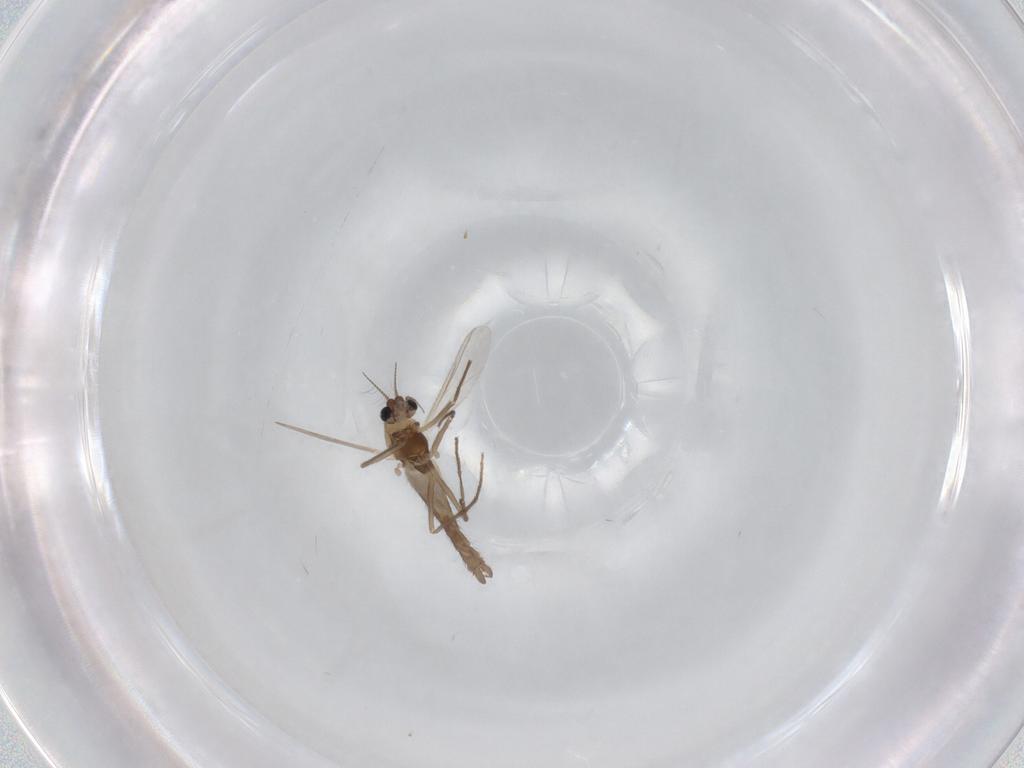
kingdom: Animalia
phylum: Arthropoda
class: Insecta
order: Diptera
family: Chironomidae
